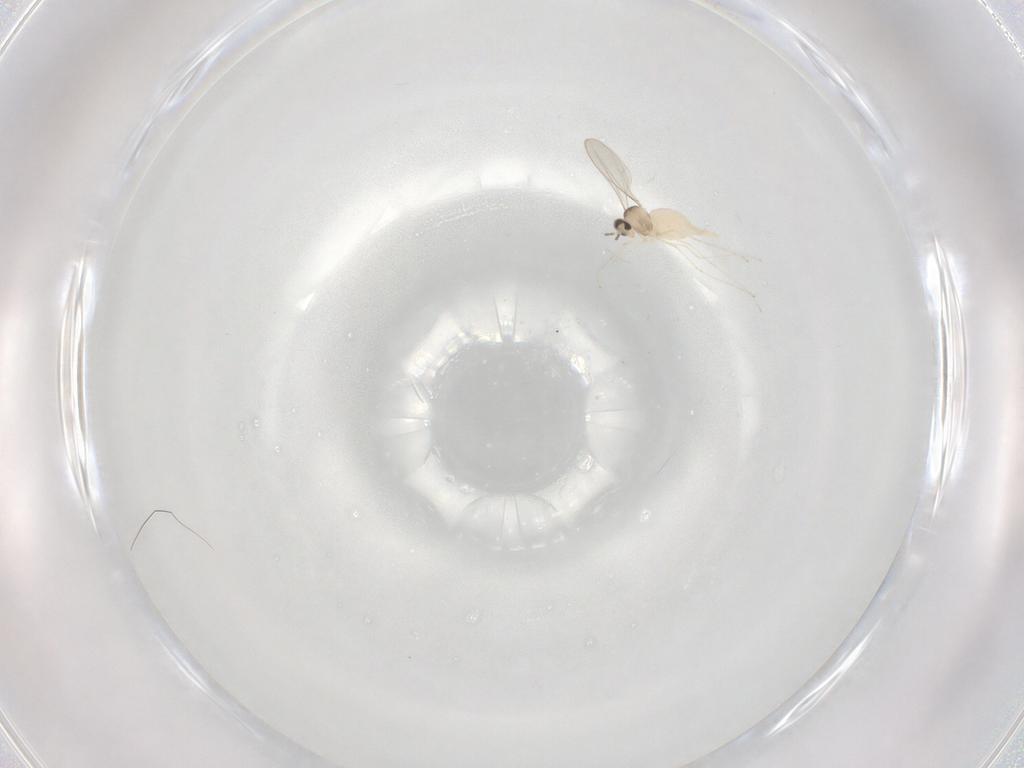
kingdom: Animalia
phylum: Arthropoda
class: Insecta
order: Diptera
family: Cecidomyiidae
